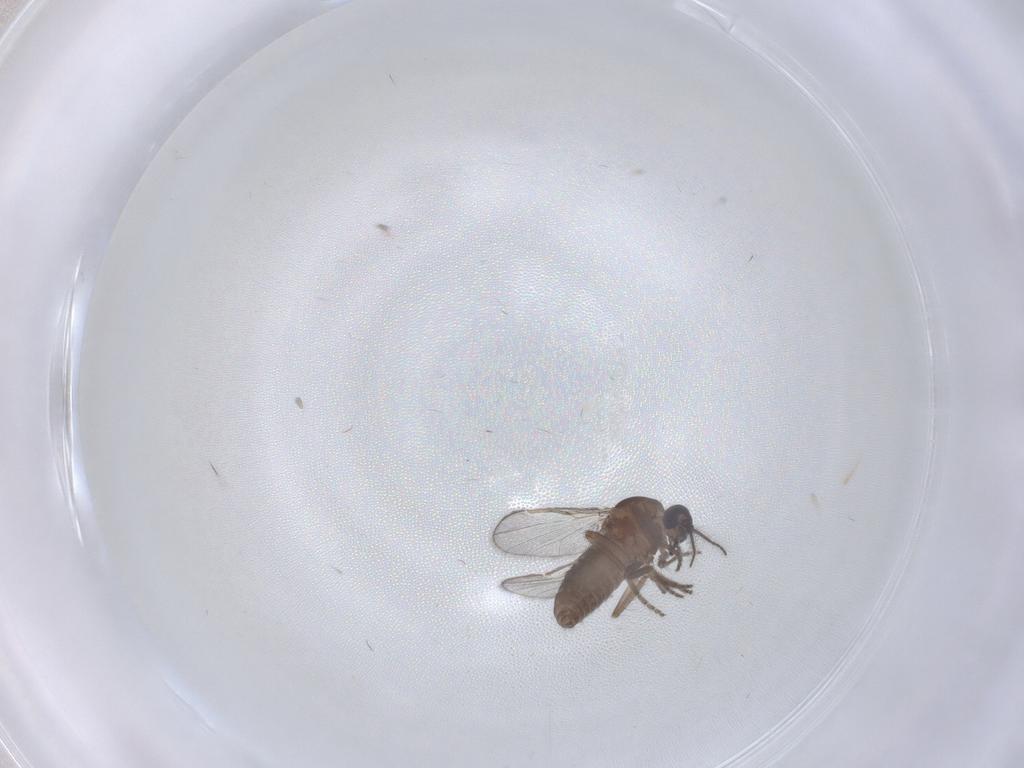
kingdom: Animalia
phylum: Arthropoda
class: Insecta
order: Diptera
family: Ceratopogonidae
